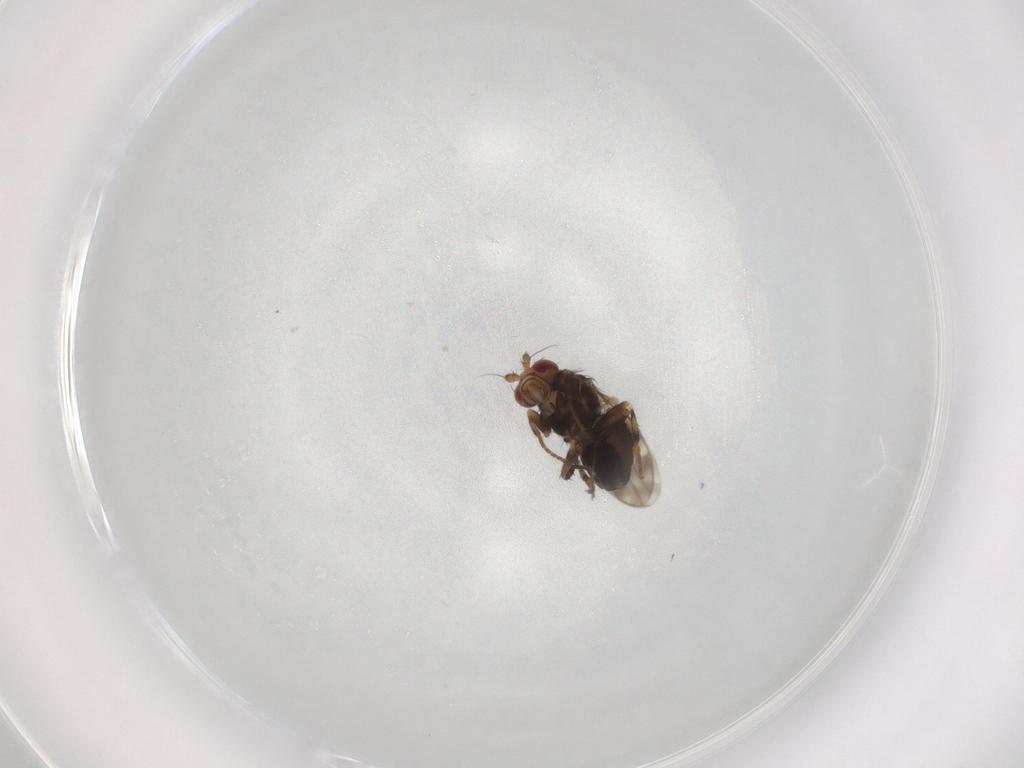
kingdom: Animalia
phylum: Arthropoda
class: Insecta
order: Diptera
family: Sphaeroceridae
